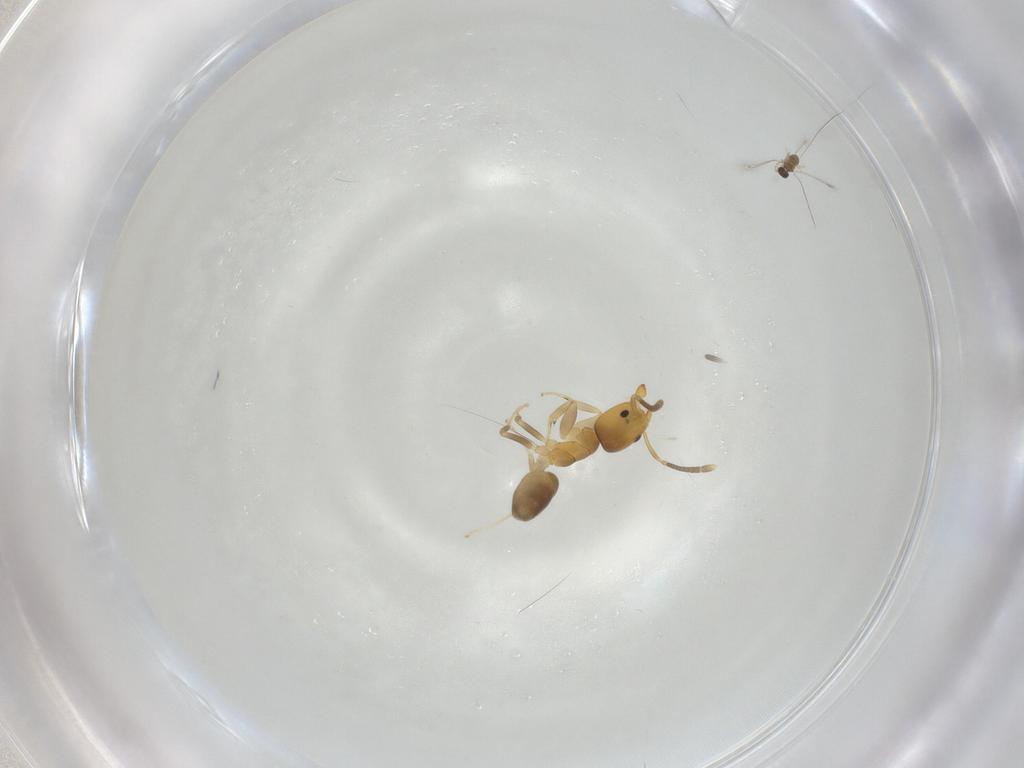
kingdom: Animalia
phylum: Arthropoda
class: Insecta
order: Hymenoptera
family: Formicidae
